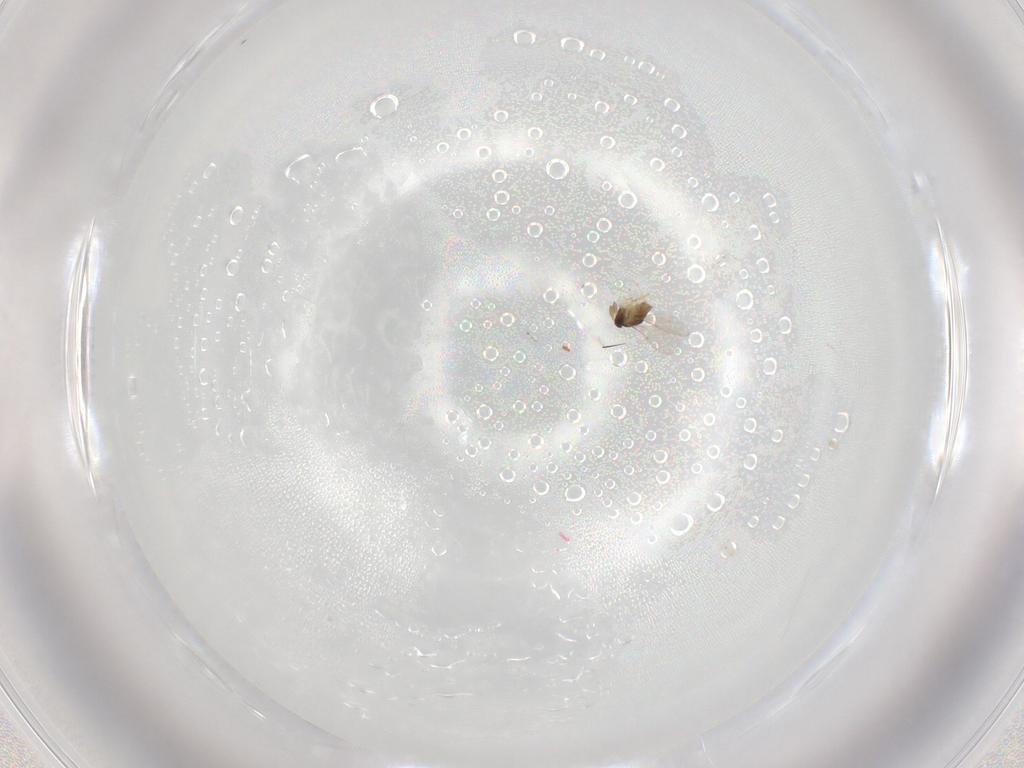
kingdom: Animalia
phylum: Arthropoda
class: Insecta
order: Hymenoptera
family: Encyrtidae
